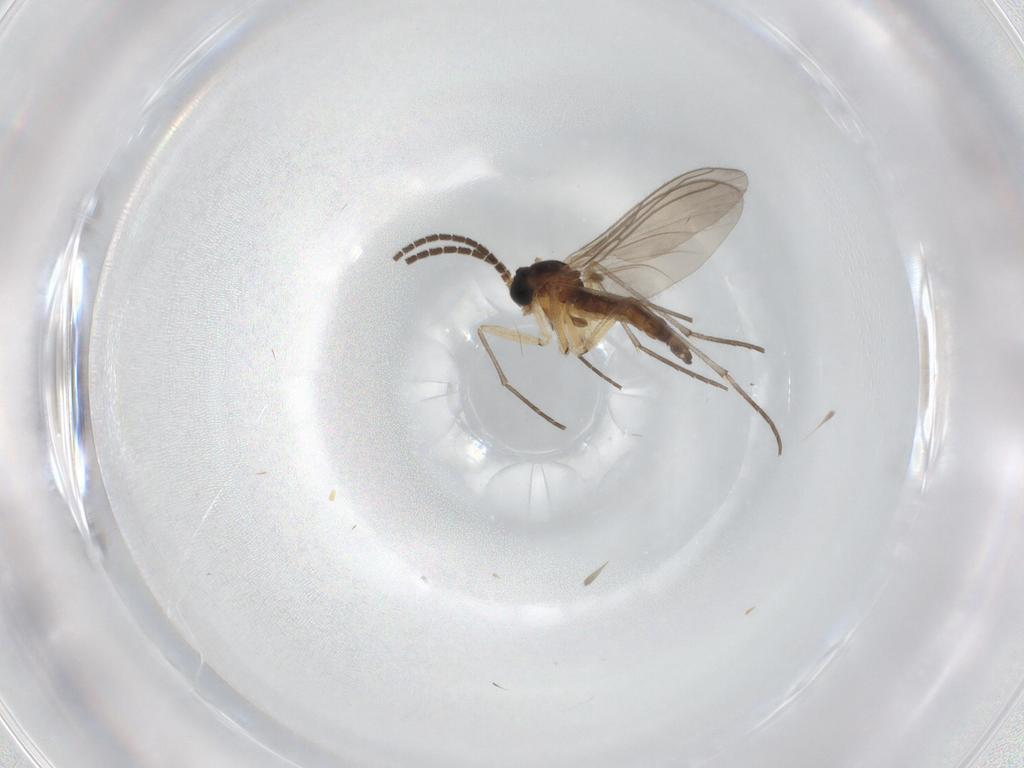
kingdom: Animalia
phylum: Arthropoda
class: Insecta
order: Diptera
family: Sciaridae
